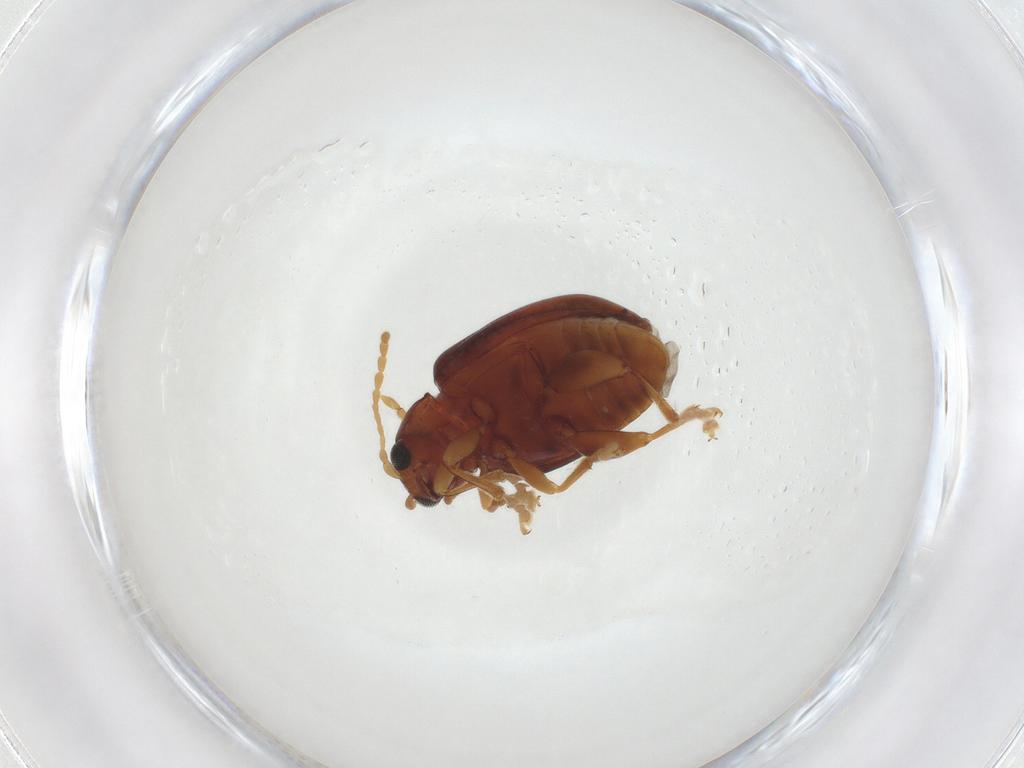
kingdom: Animalia
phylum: Arthropoda
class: Insecta
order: Coleoptera
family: Chrysomelidae
